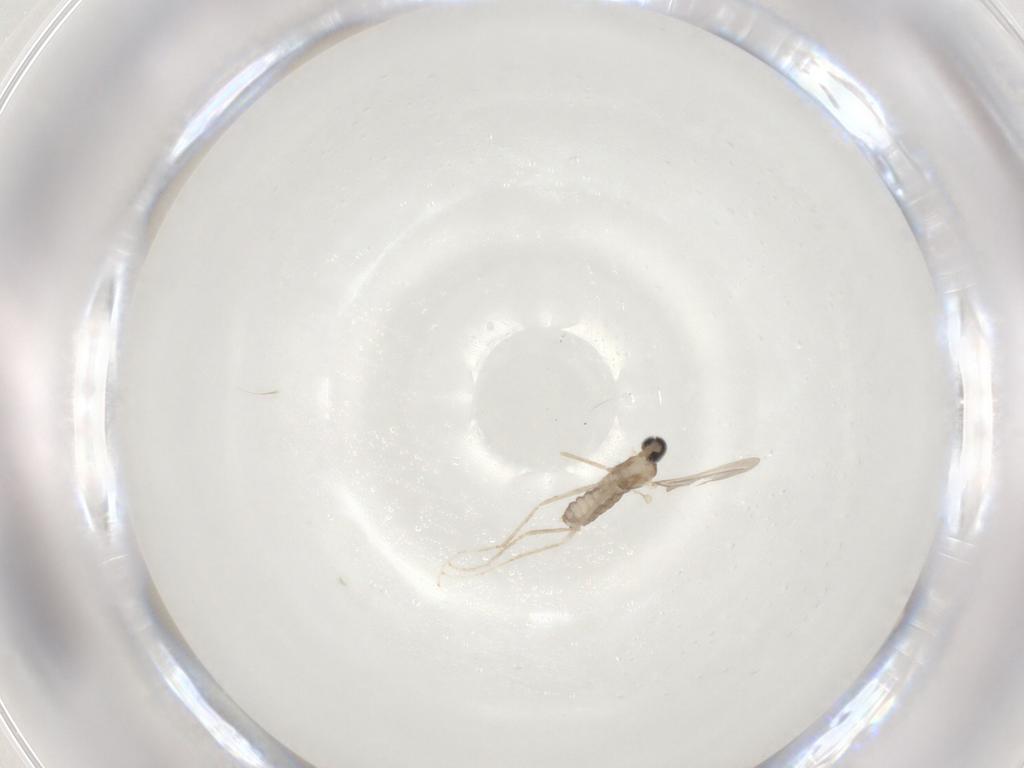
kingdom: Animalia
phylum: Arthropoda
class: Insecta
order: Diptera
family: Cecidomyiidae
